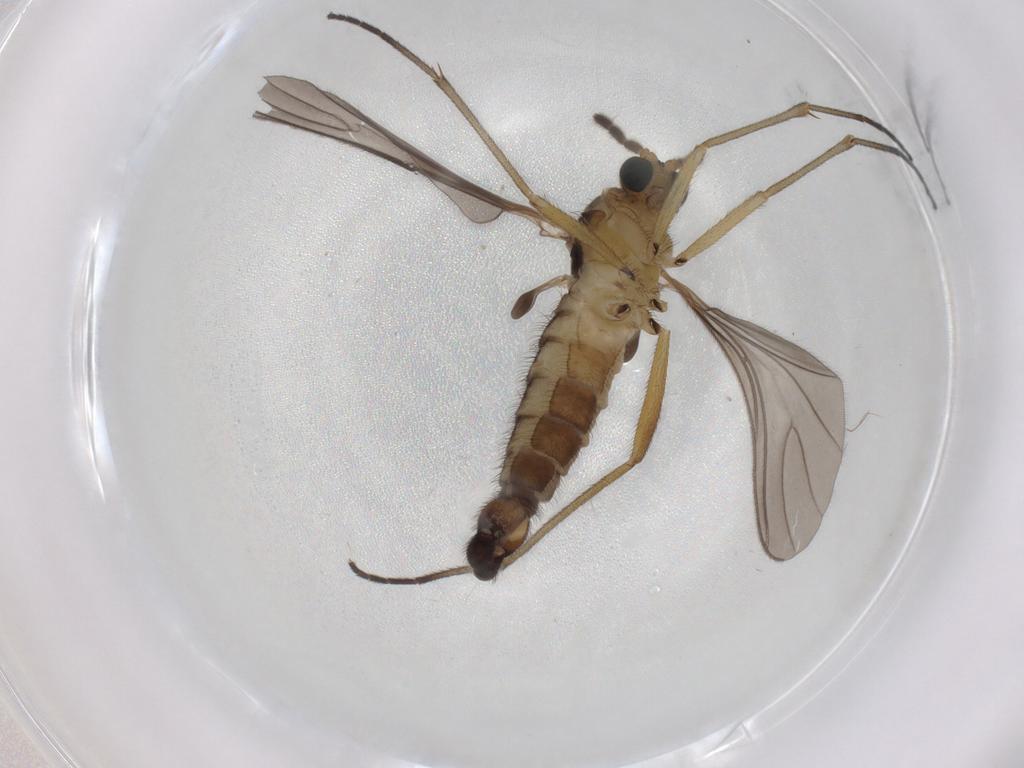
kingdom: Animalia
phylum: Arthropoda
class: Insecta
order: Diptera
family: Sciaridae
